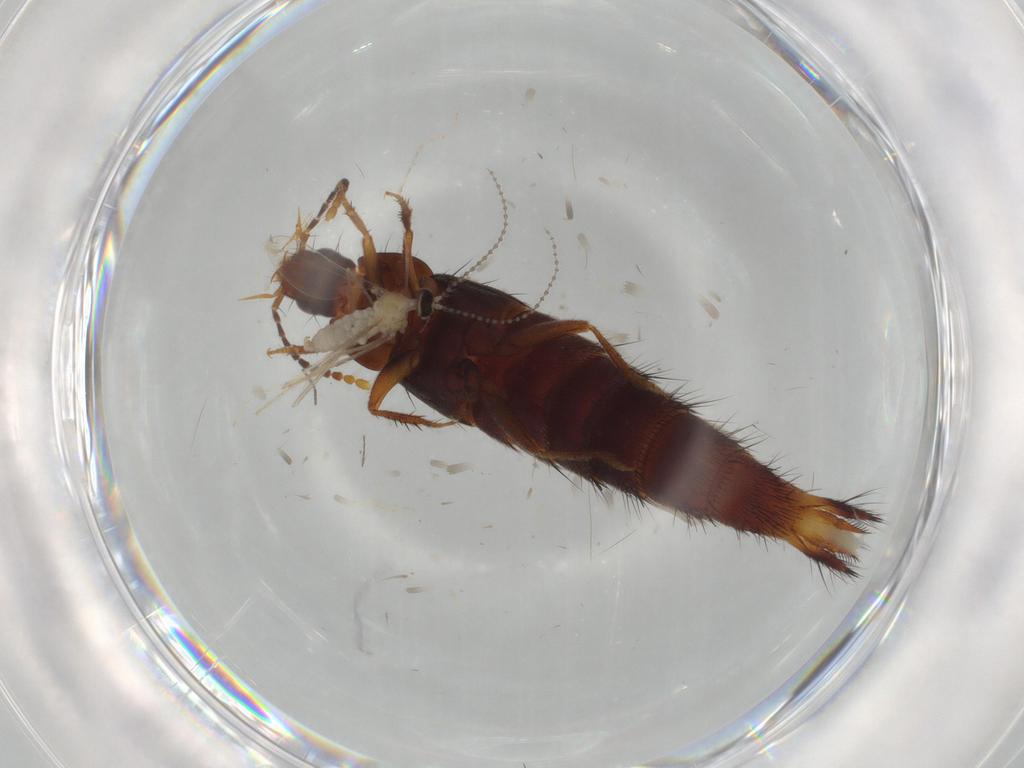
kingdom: Animalia
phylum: Arthropoda
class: Insecta
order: Coleoptera
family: Staphylinidae
